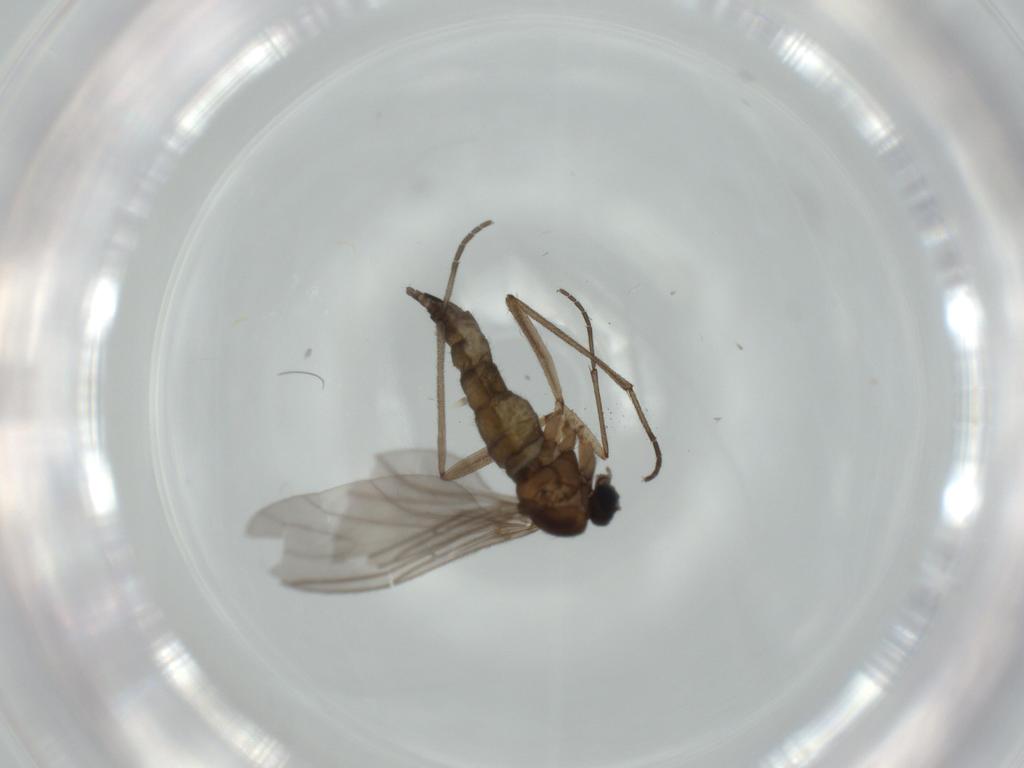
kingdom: Animalia
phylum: Arthropoda
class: Insecta
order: Diptera
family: Sciaridae
